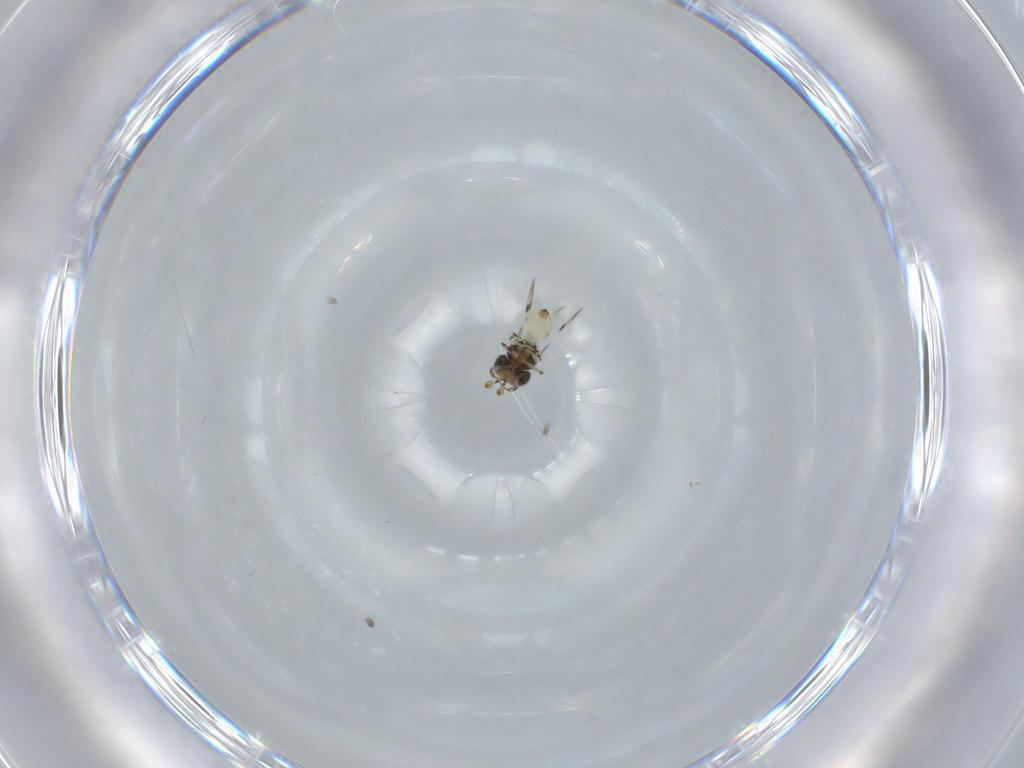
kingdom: Animalia
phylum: Arthropoda
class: Insecta
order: Hymenoptera
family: Scelionidae
